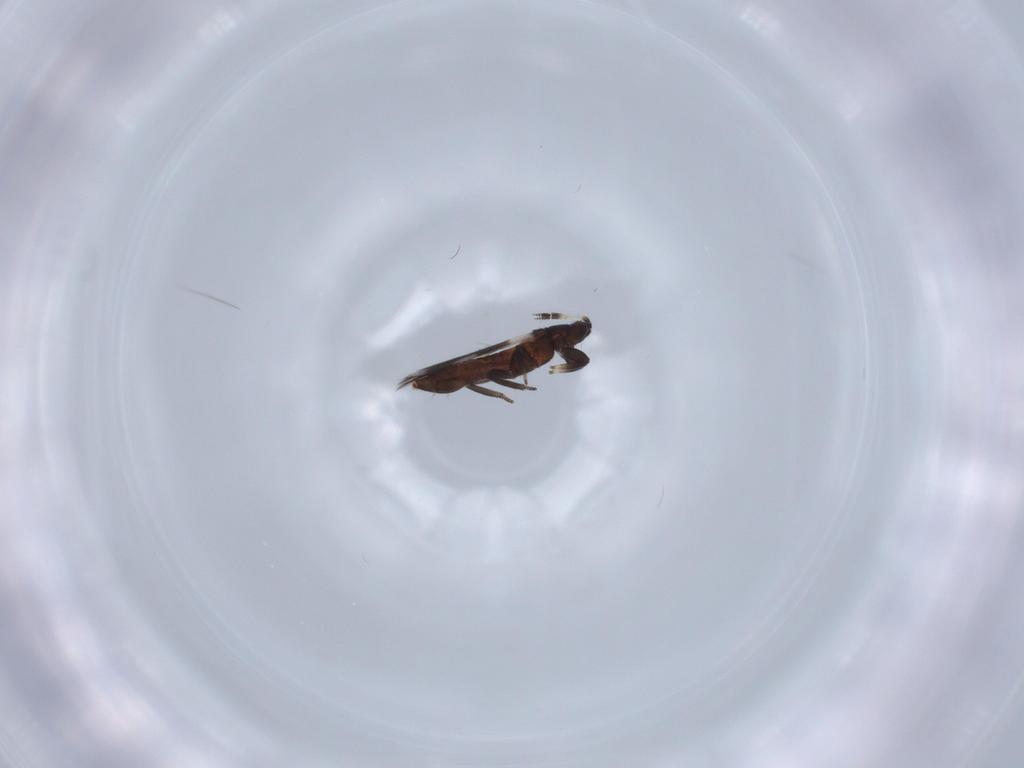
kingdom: Animalia
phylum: Arthropoda
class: Insecta
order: Thysanoptera
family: Aeolothripidae
